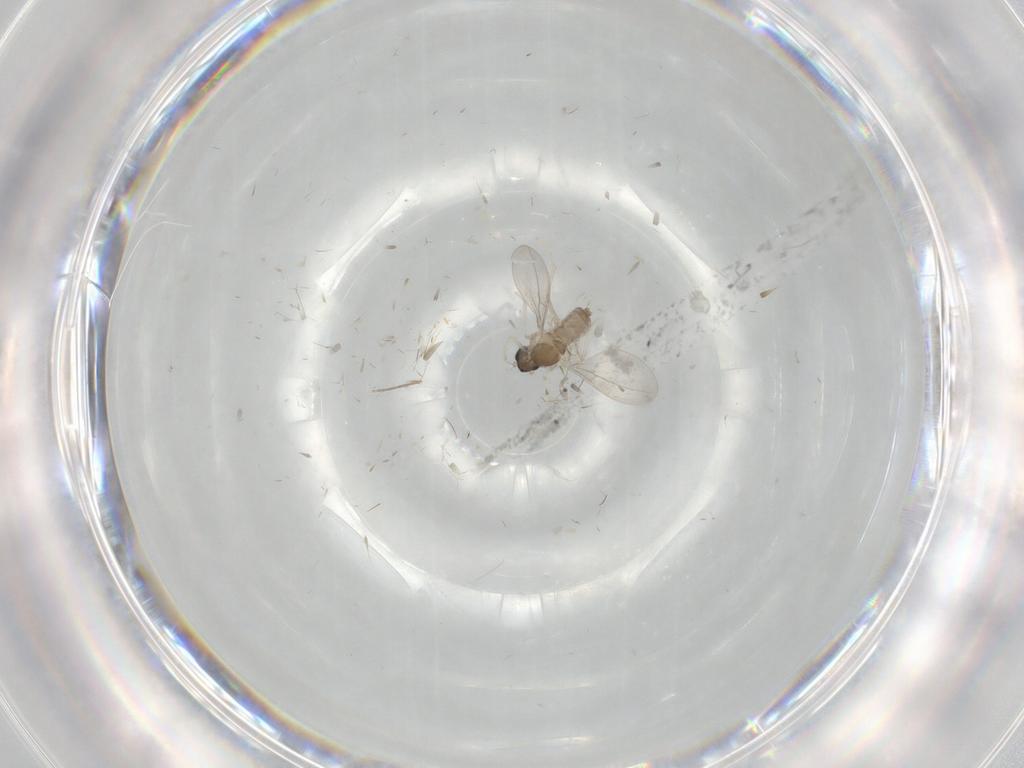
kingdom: Animalia
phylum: Arthropoda
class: Insecta
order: Diptera
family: Cecidomyiidae
